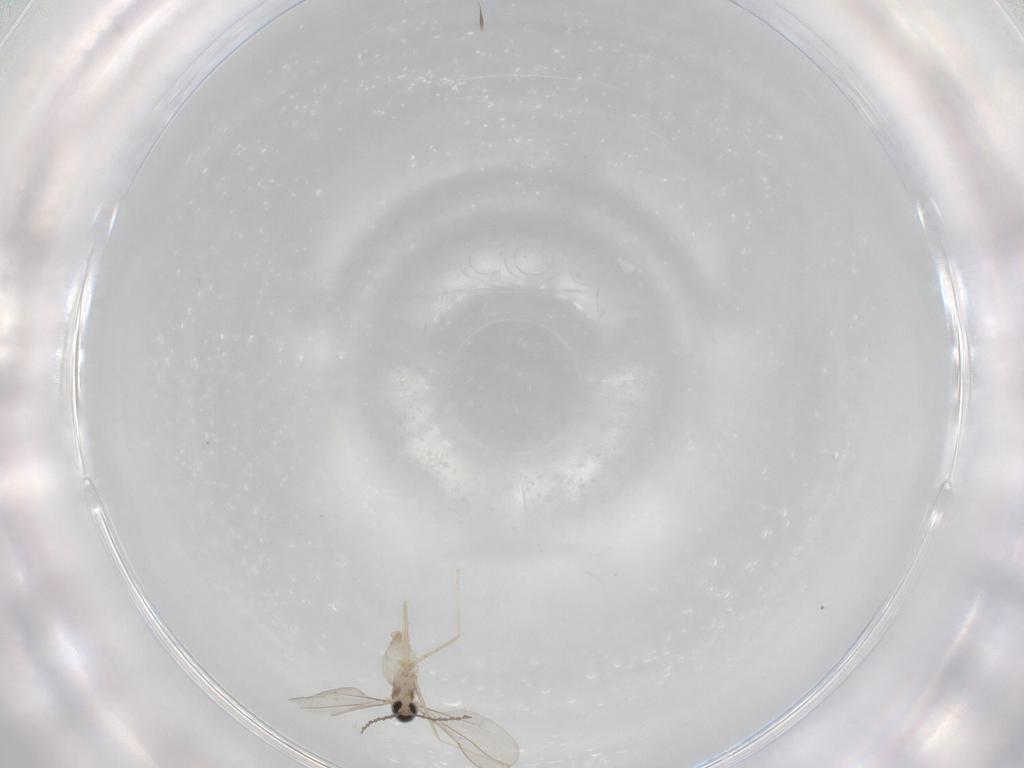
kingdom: Animalia
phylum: Arthropoda
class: Insecta
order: Diptera
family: Cecidomyiidae
